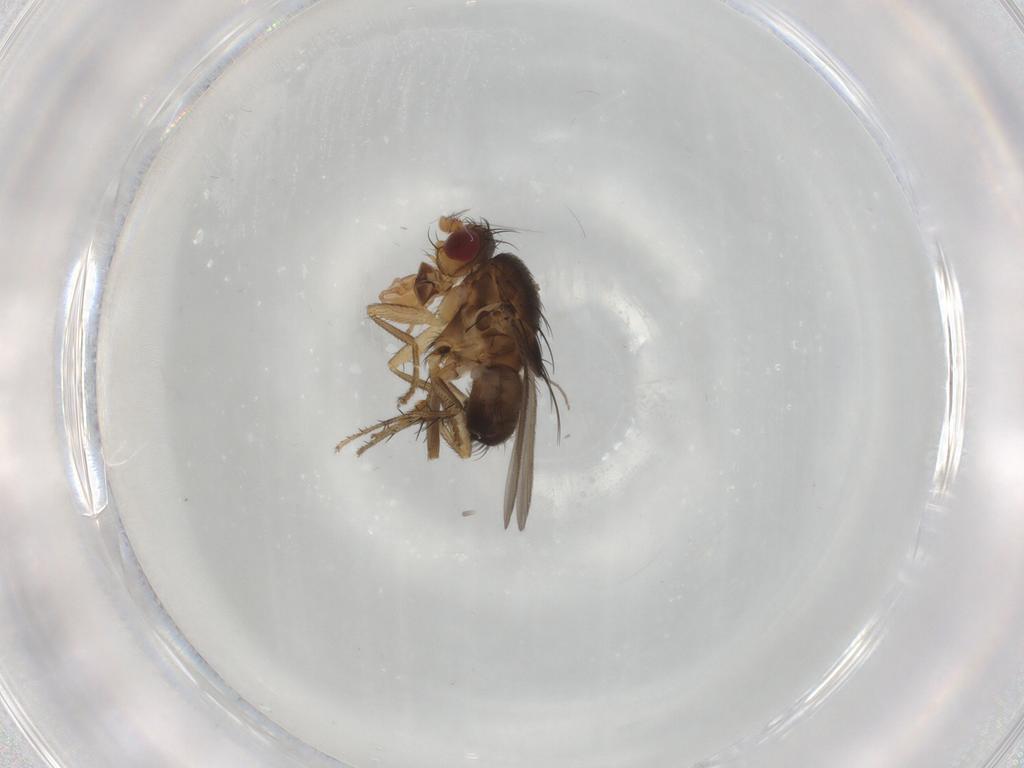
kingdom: Animalia
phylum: Arthropoda
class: Insecta
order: Diptera
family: Sphaeroceridae
